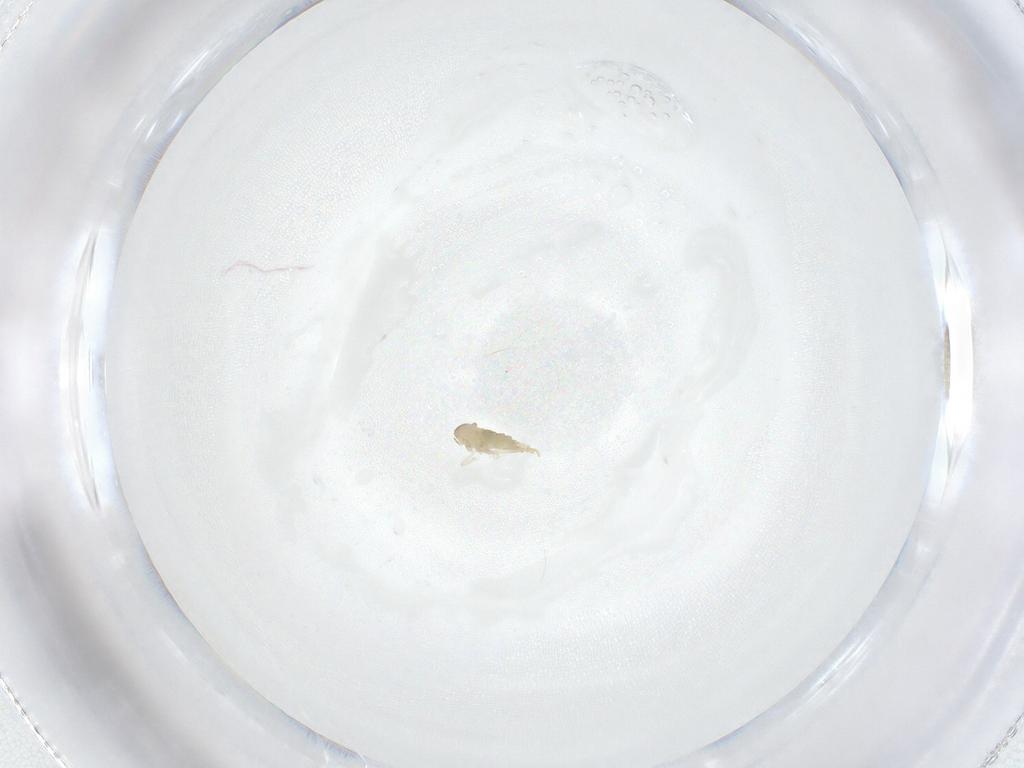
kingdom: Animalia
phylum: Arthropoda
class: Insecta
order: Diptera
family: Cecidomyiidae
